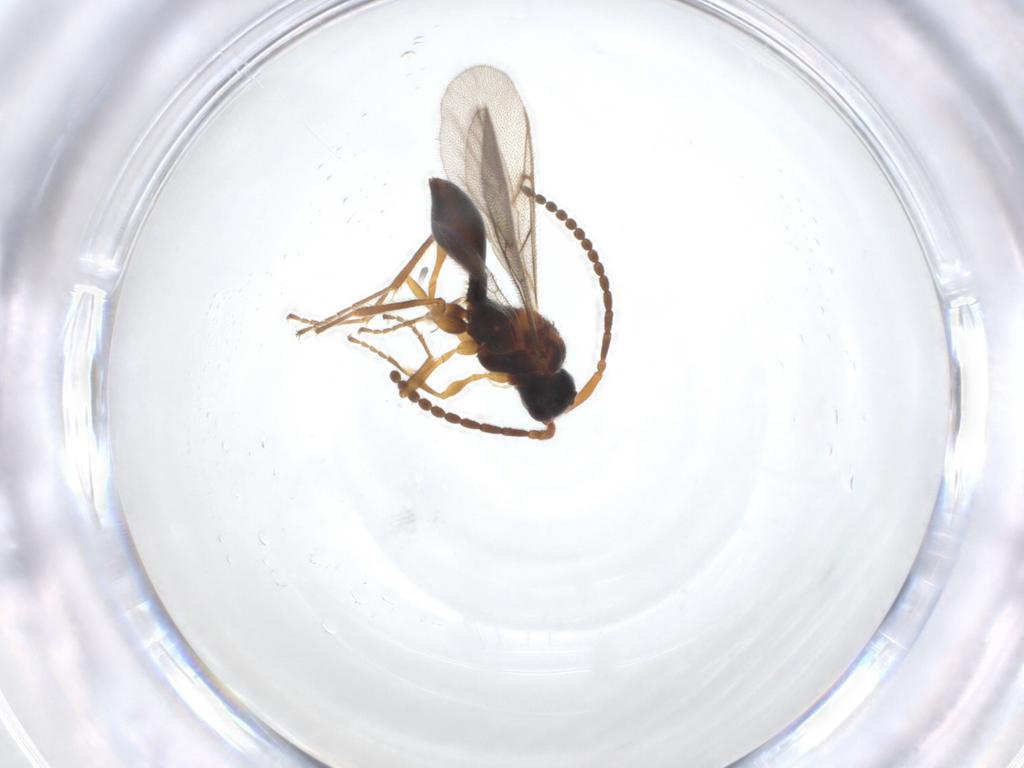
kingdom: Animalia
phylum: Arthropoda
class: Insecta
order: Hymenoptera
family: Diapriidae
